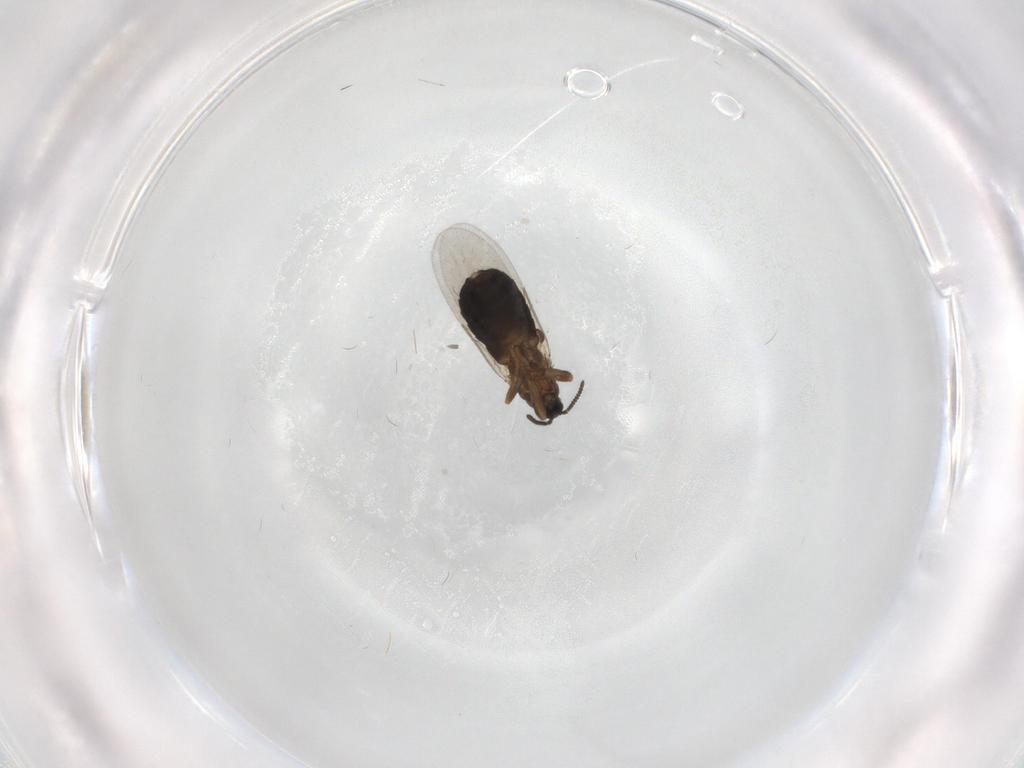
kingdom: Animalia
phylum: Arthropoda
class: Insecta
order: Diptera
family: Scatopsidae
